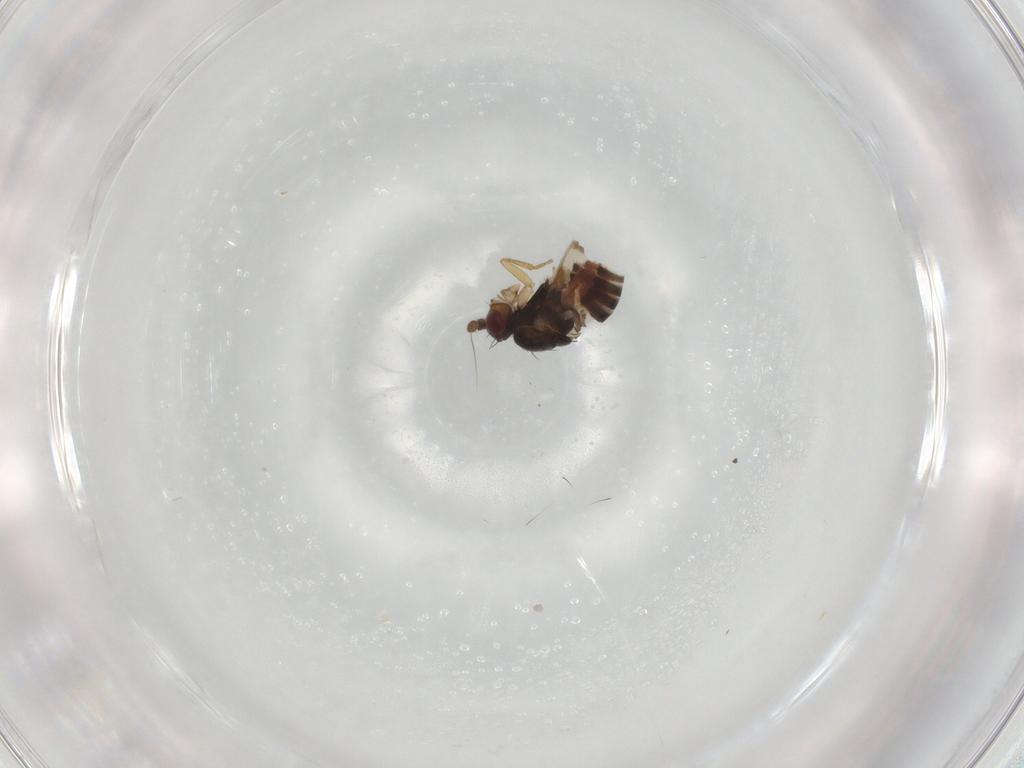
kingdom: Animalia
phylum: Arthropoda
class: Insecta
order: Diptera
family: Sphaeroceridae
